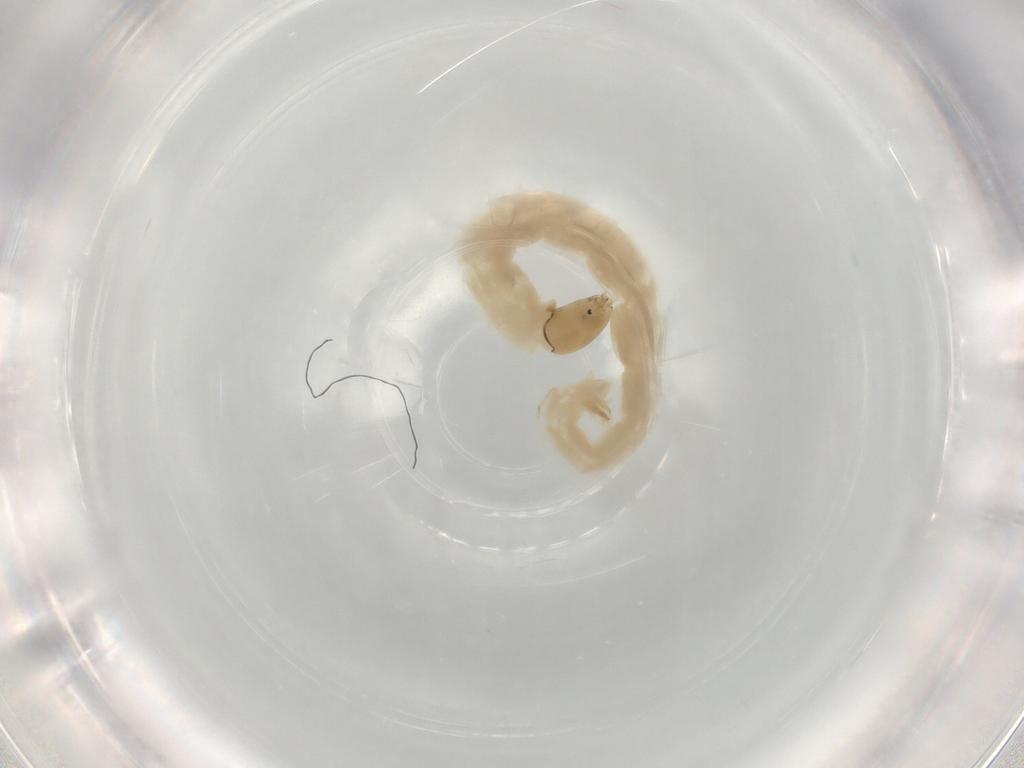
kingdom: Animalia
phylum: Arthropoda
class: Insecta
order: Diptera
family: Chironomidae
